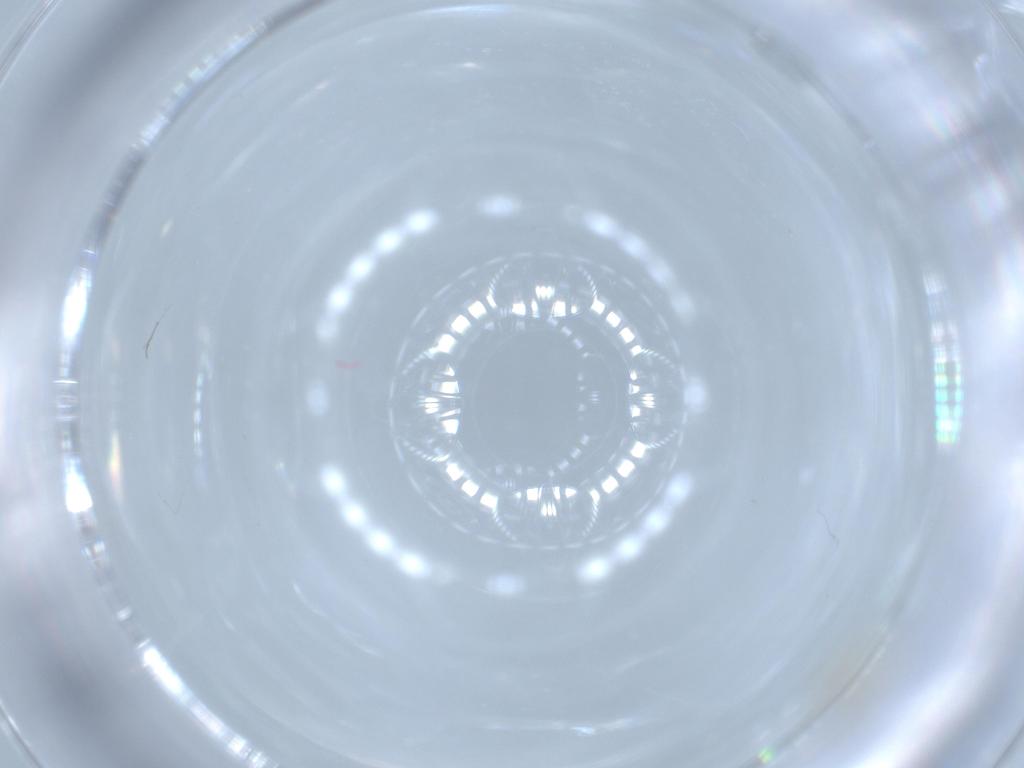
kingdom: Animalia
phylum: Arthropoda
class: Insecta
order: Diptera
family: Cecidomyiidae
